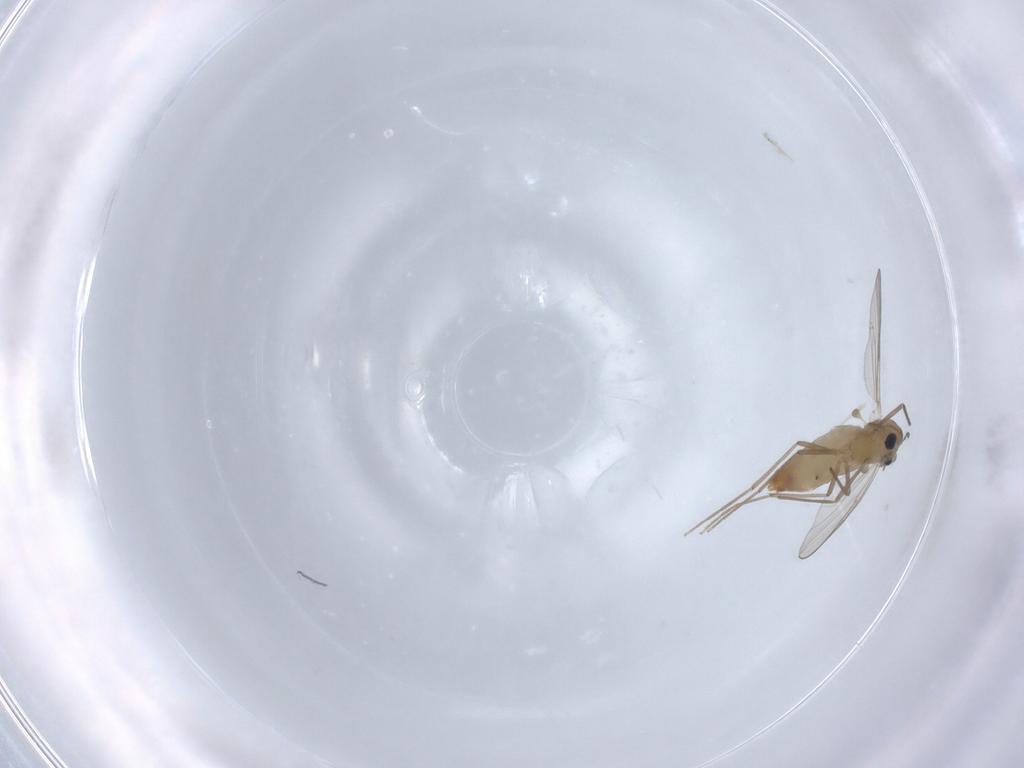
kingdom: Animalia
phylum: Arthropoda
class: Insecta
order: Diptera
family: Chironomidae
